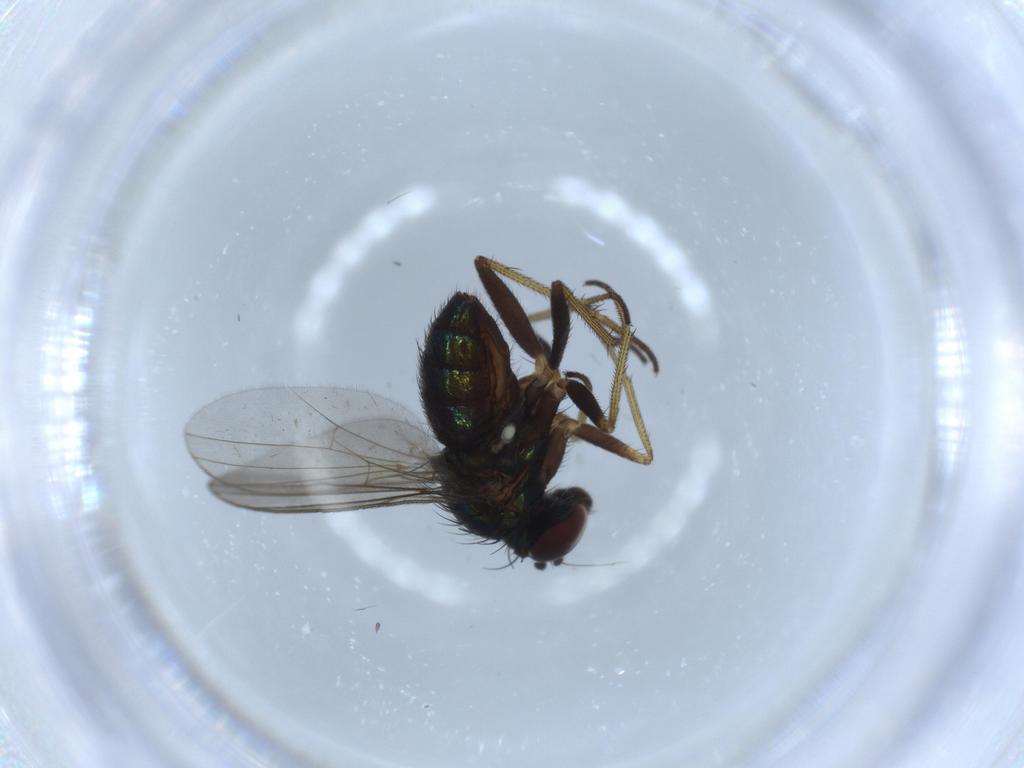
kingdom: Animalia
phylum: Arthropoda
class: Insecta
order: Diptera
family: Dolichopodidae
